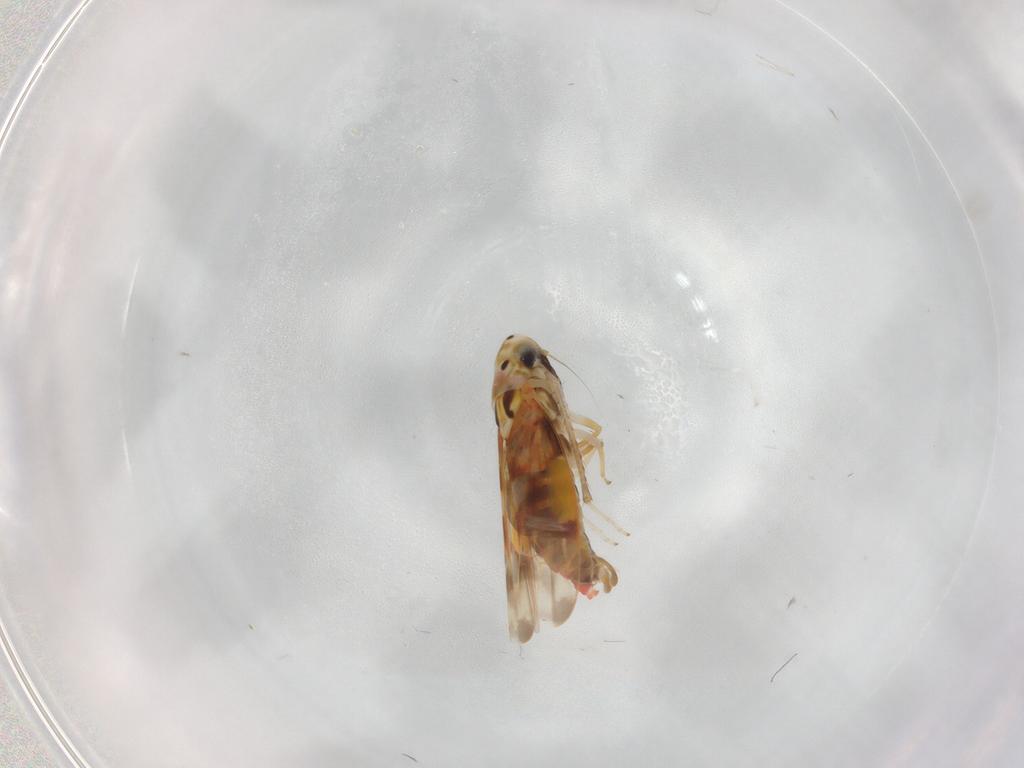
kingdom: Animalia
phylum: Arthropoda
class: Insecta
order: Hemiptera
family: Cicadellidae
